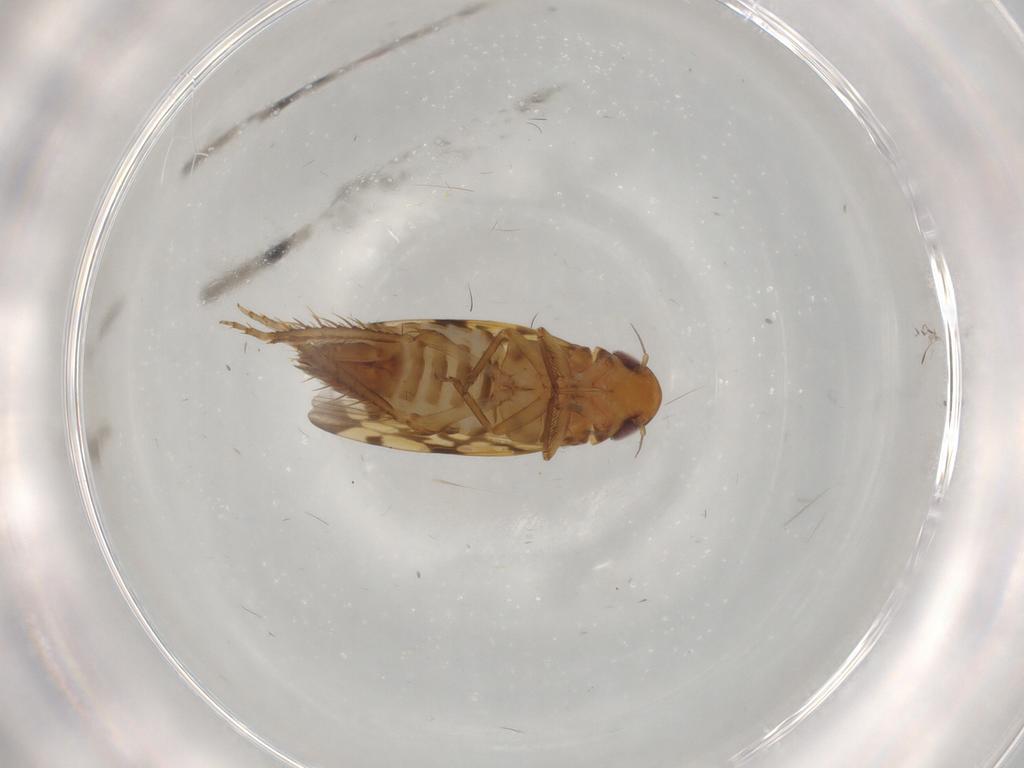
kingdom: Animalia
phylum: Arthropoda
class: Insecta
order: Hemiptera
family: Cicadellidae
